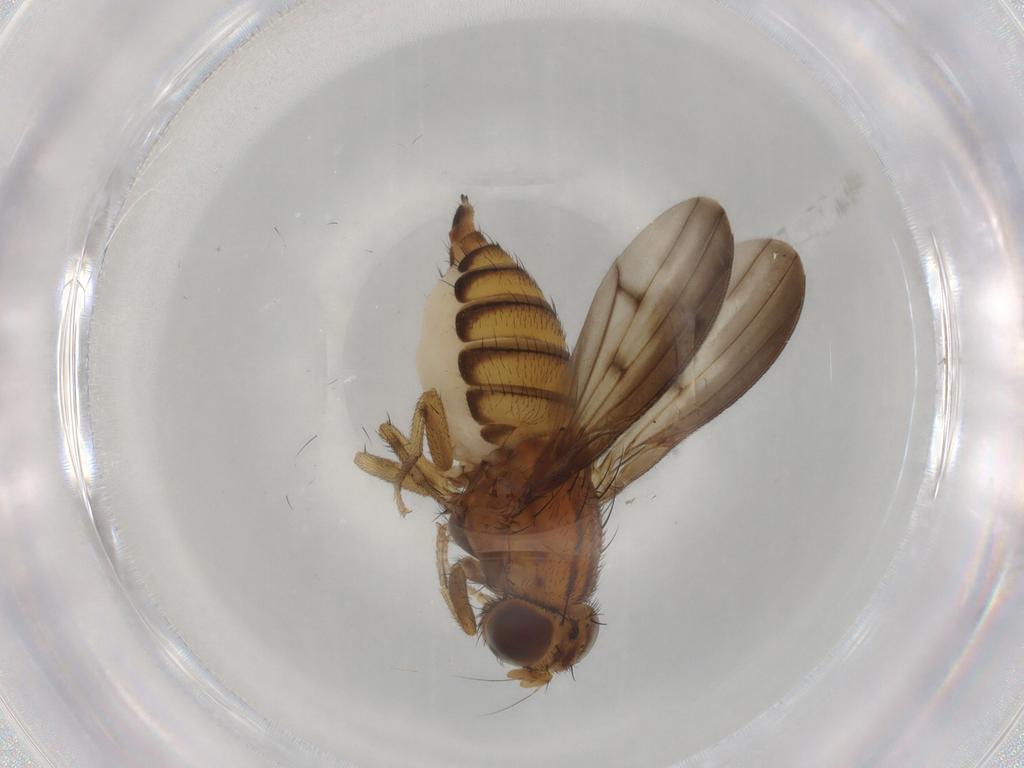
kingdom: Animalia
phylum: Arthropoda
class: Insecta
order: Diptera
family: Lauxaniidae
